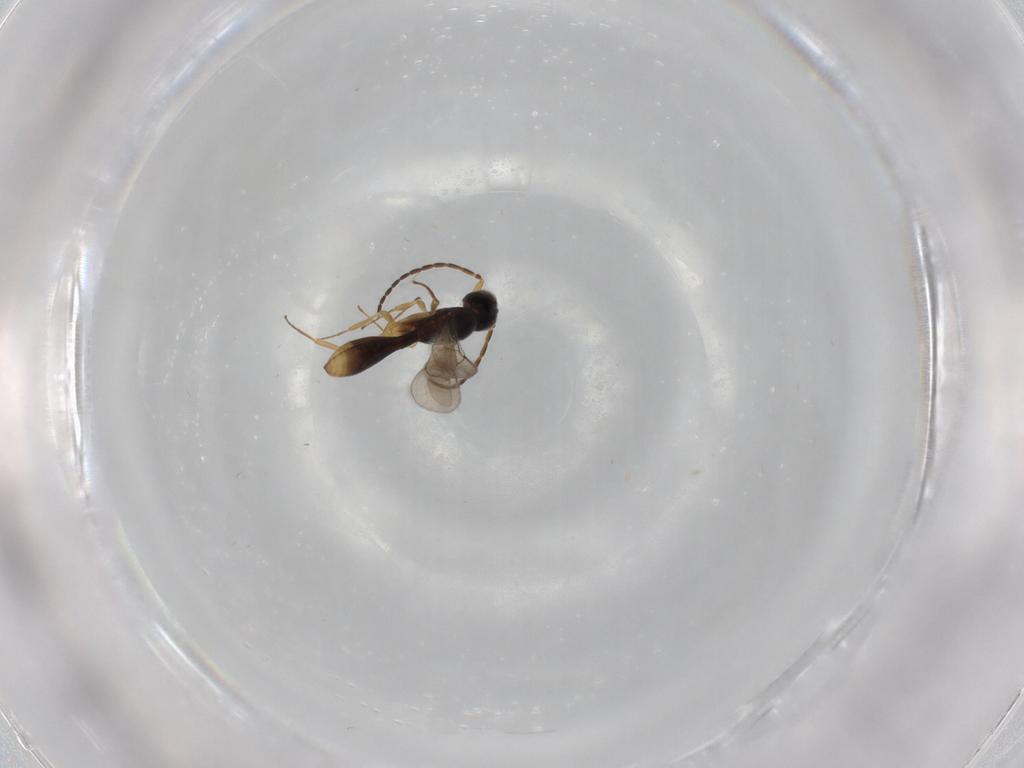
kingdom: Animalia
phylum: Arthropoda
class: Insecta
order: Hymenoptera
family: Scelionidae
